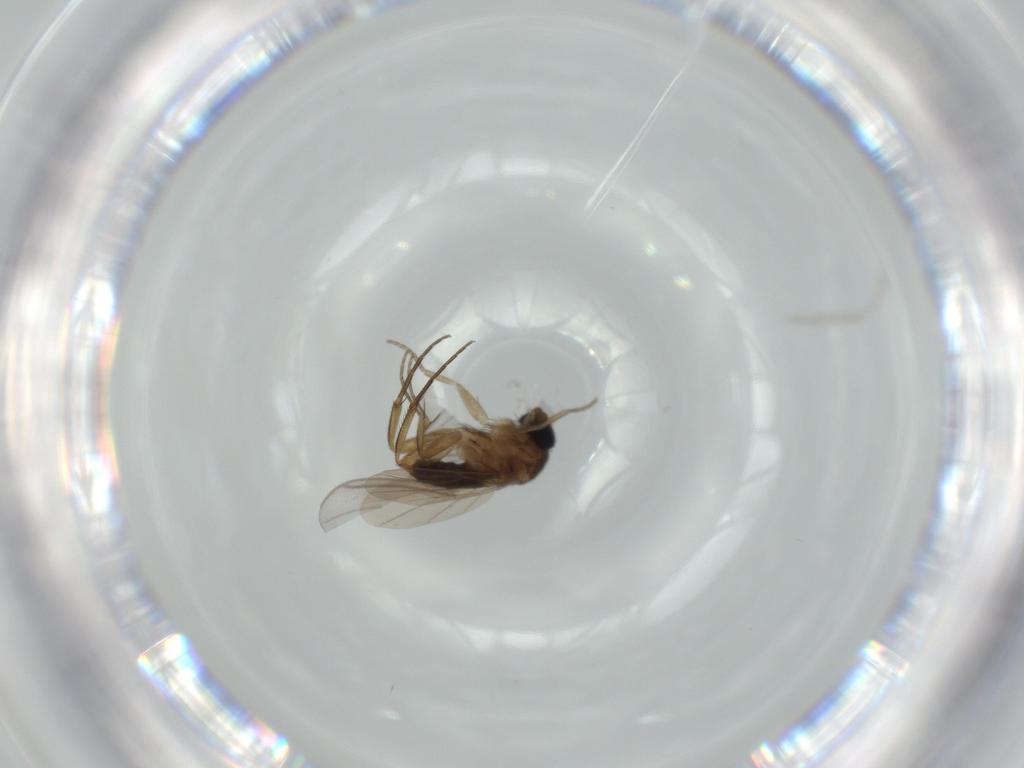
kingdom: Animalia
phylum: Arthropoda
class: Insecta
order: Diptera
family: Phoridae
